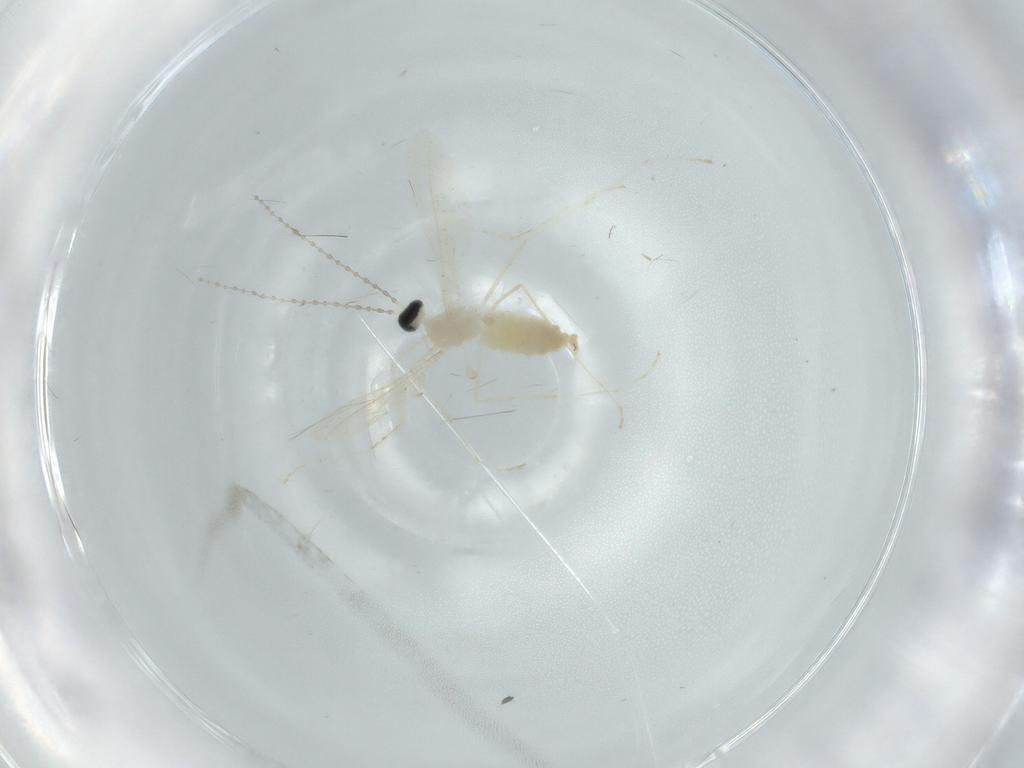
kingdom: Animalia
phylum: Arthropoda
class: Insecta
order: Diptera
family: Cecidomyiidae
